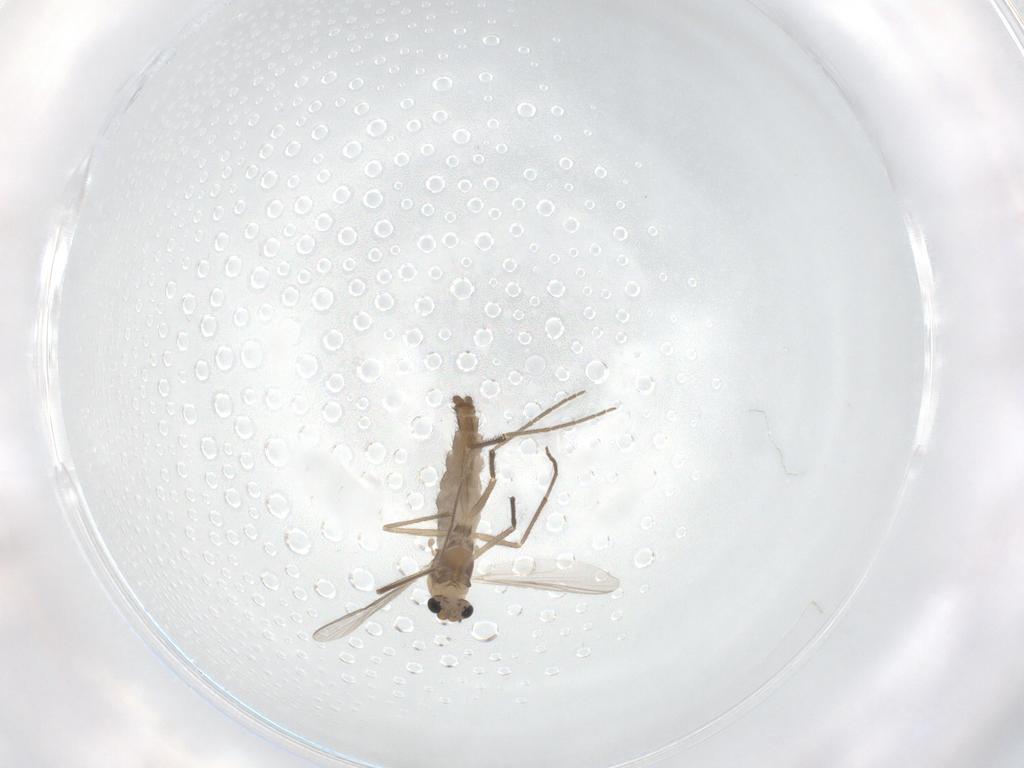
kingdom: Animalia
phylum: Arthropoda
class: Insecta
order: Diptera
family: Chironomidae
